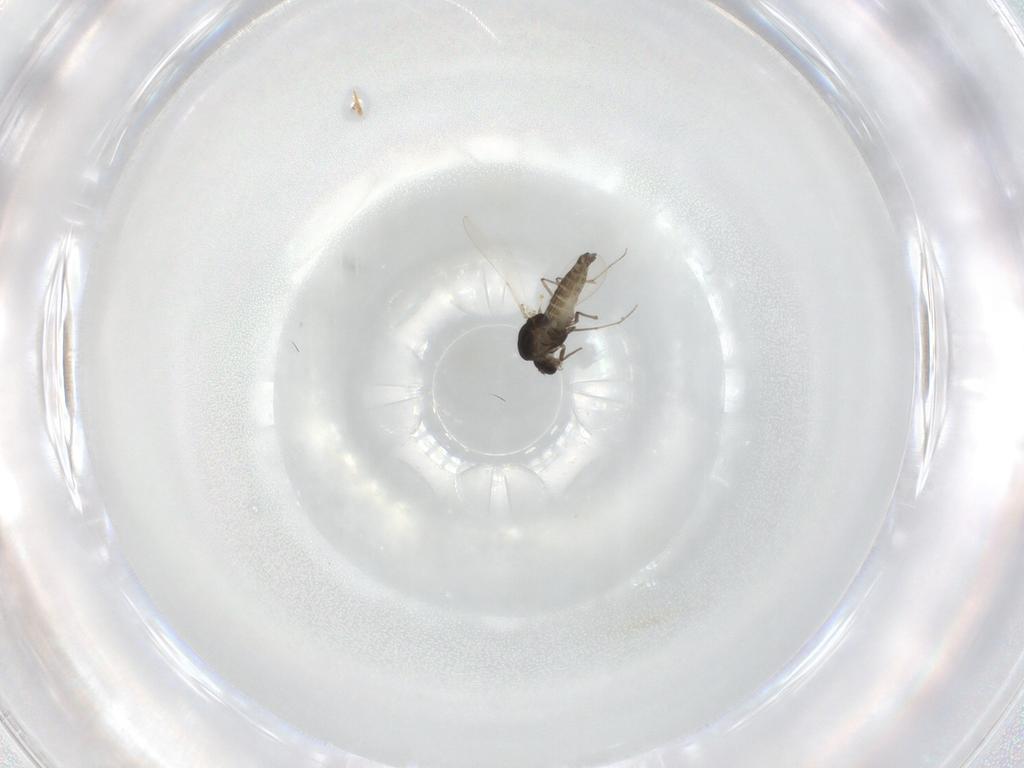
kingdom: Animalia
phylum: Arthropoda
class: Insecta
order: Diptera
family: Chironomidae
